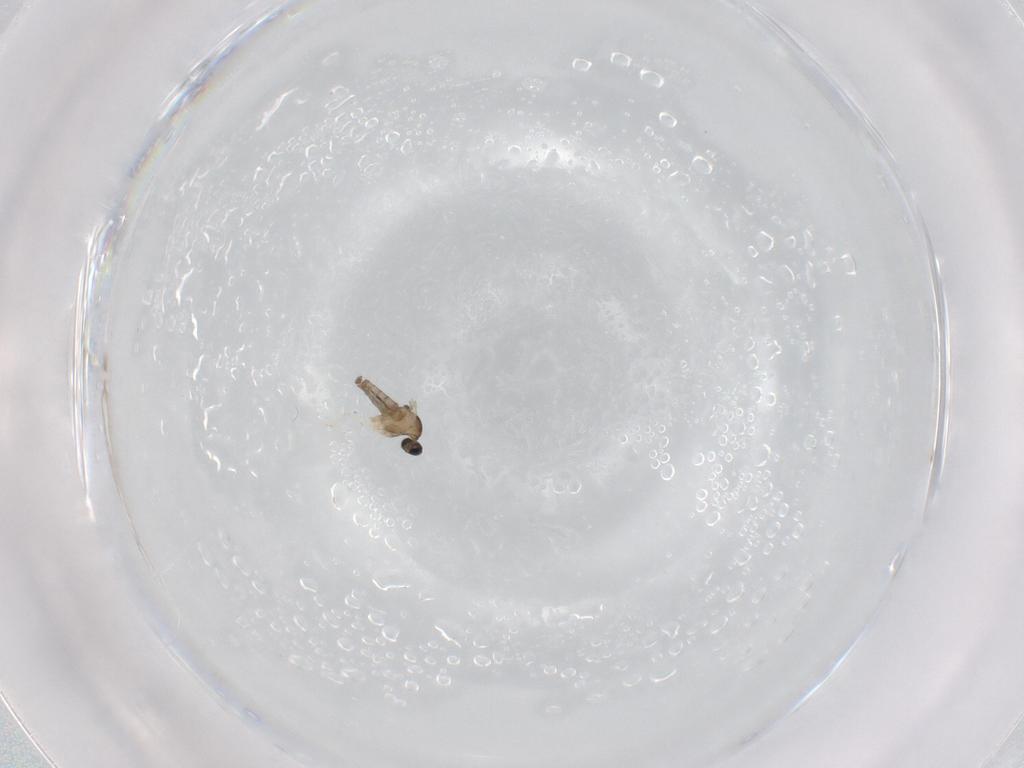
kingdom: Animalia
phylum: Arthropoda
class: Insecta
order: Diptera
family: Cecidomyiidae
